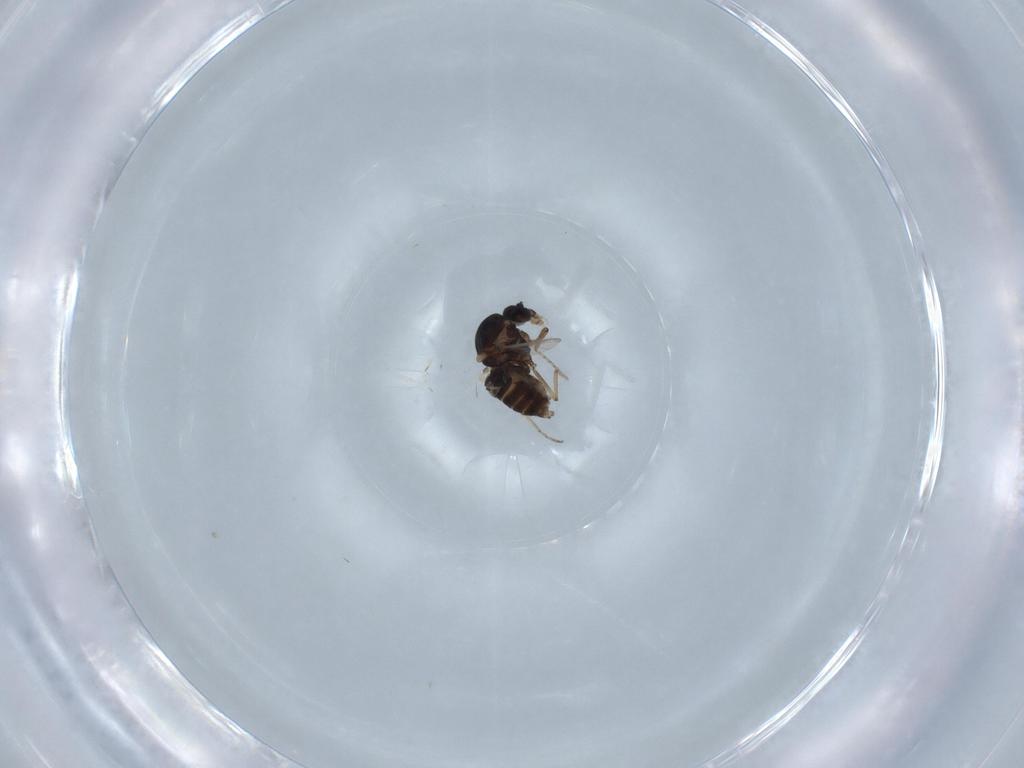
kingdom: Animalia
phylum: Arthropoda
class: Insecta
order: Diptera
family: Ceratopogonidae
